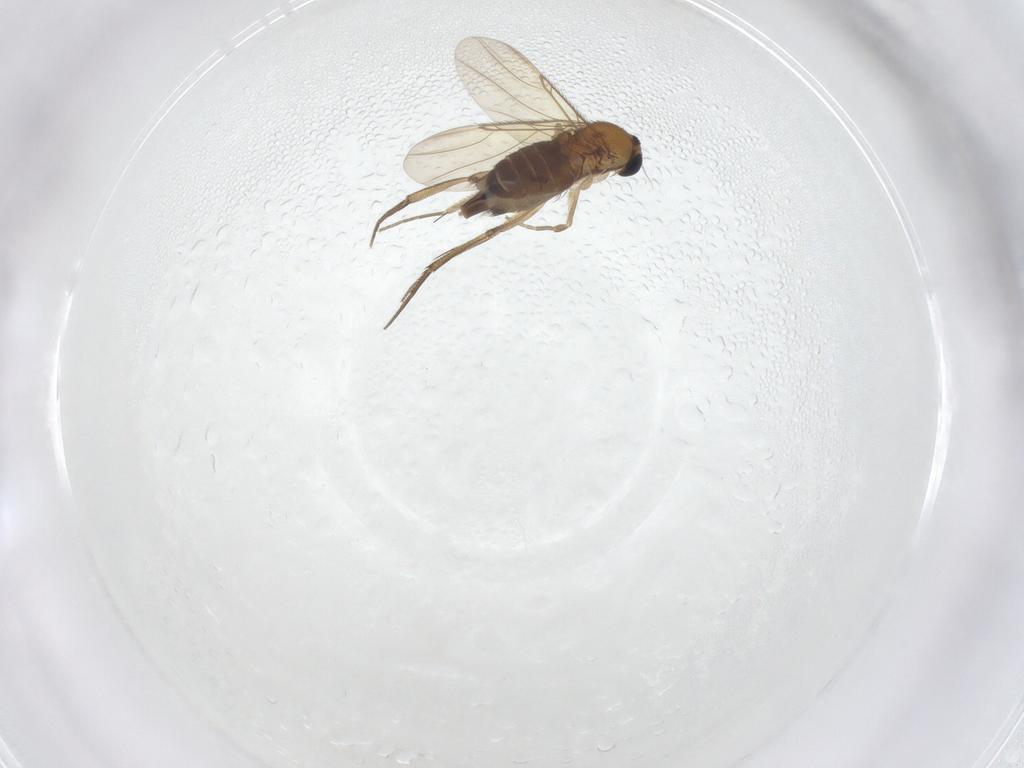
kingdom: Animalia
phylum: Arthropoda
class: Insecta
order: Diptera
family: Phoridae
